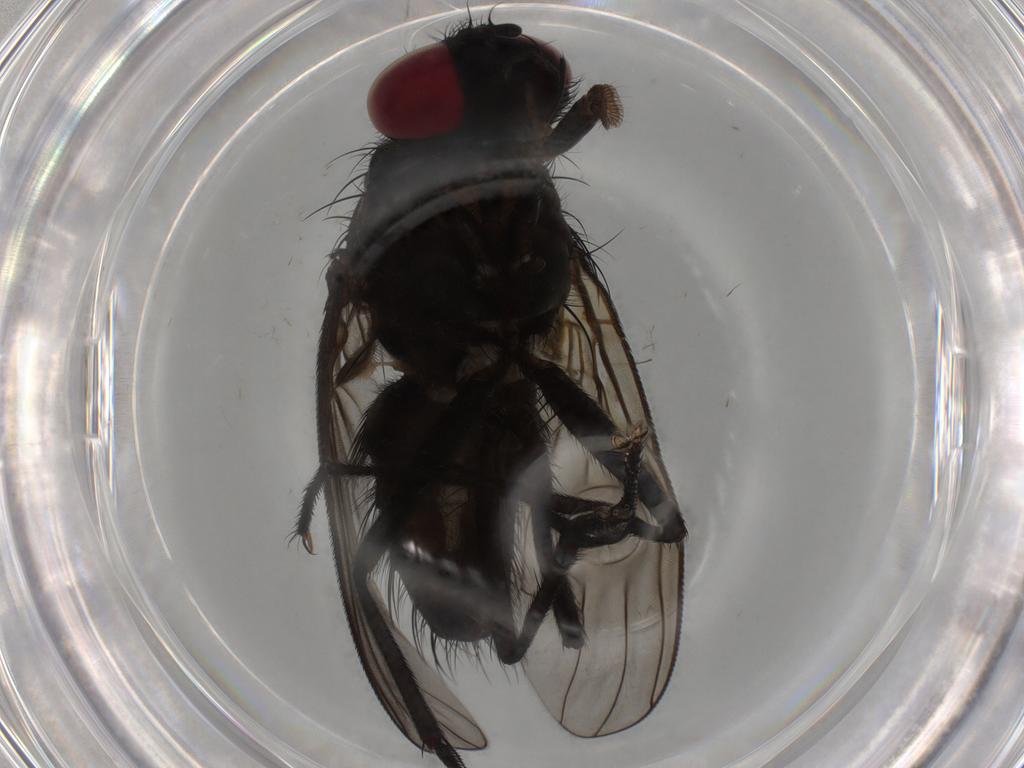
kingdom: Animalia
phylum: Arthropoda
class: Insecta
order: Diptera
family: Muscidae
